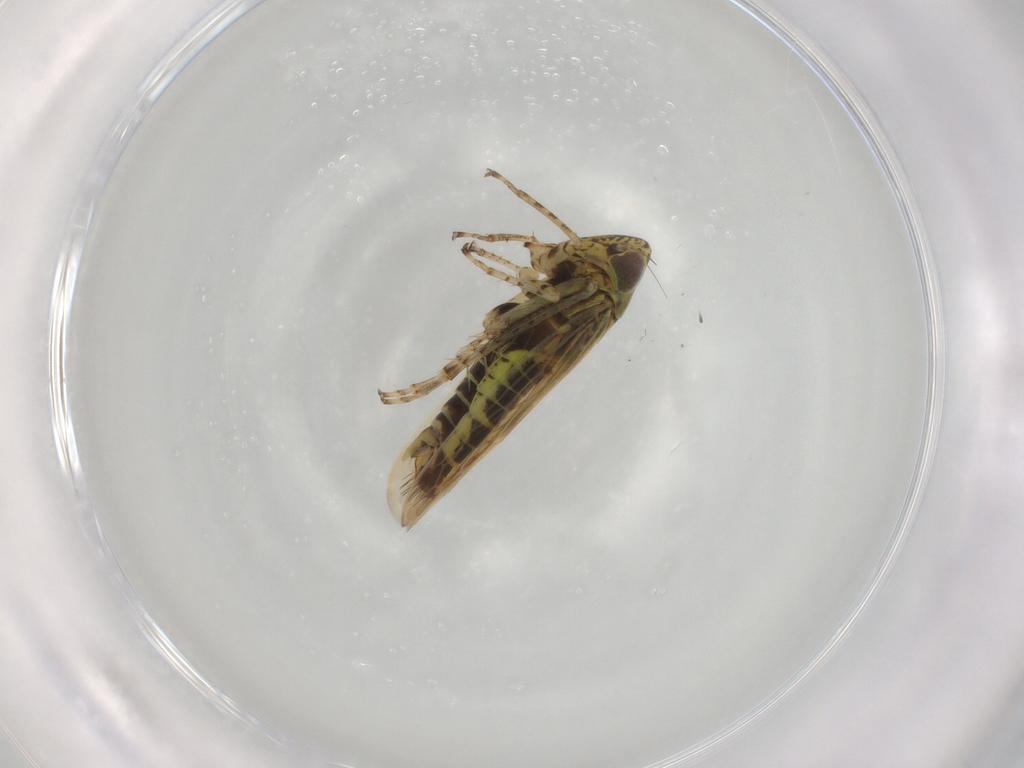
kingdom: Animalia
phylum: Arthropoda
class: Insecta
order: Hemiptera
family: Cicadellidae
